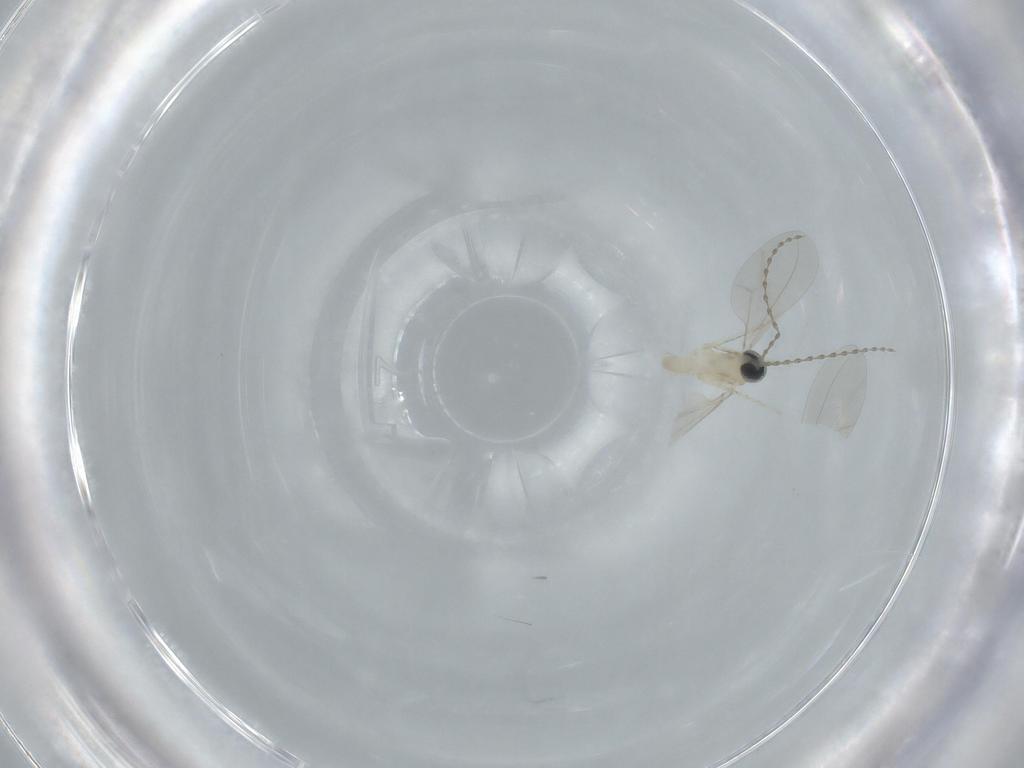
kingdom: Animalia
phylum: Arthropoda
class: Insecta
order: Diptera
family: Cecidomyiidae
